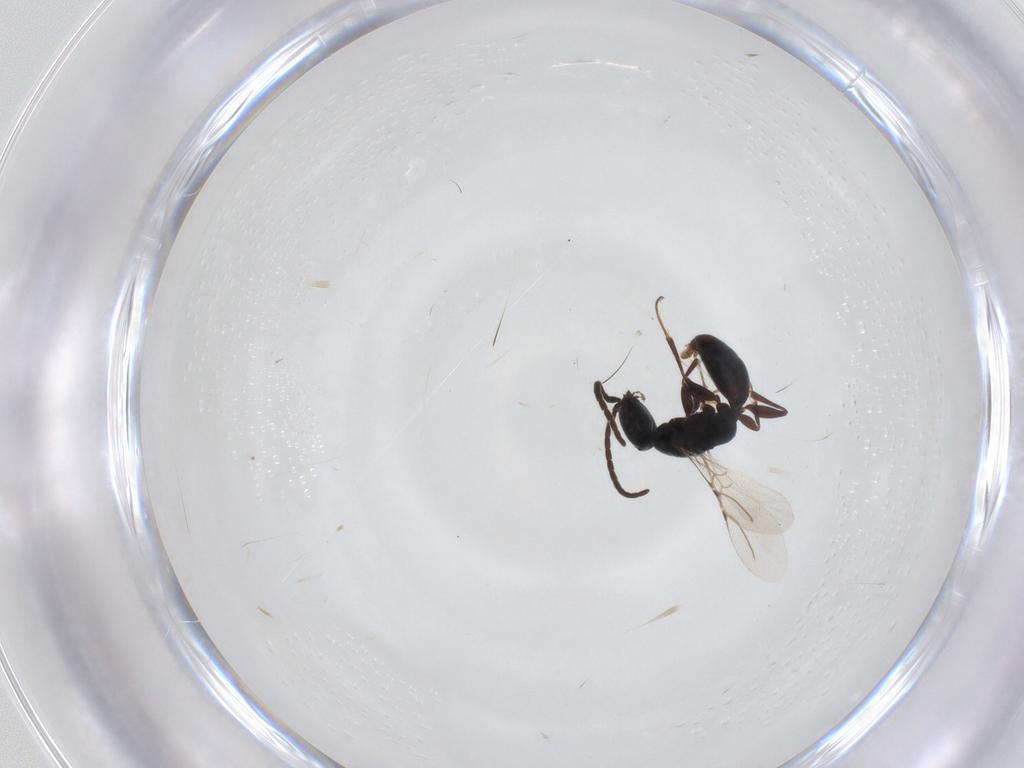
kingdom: Animalia
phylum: Arthropoda
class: Insecta
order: Hymenoptera
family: Bethylidae
